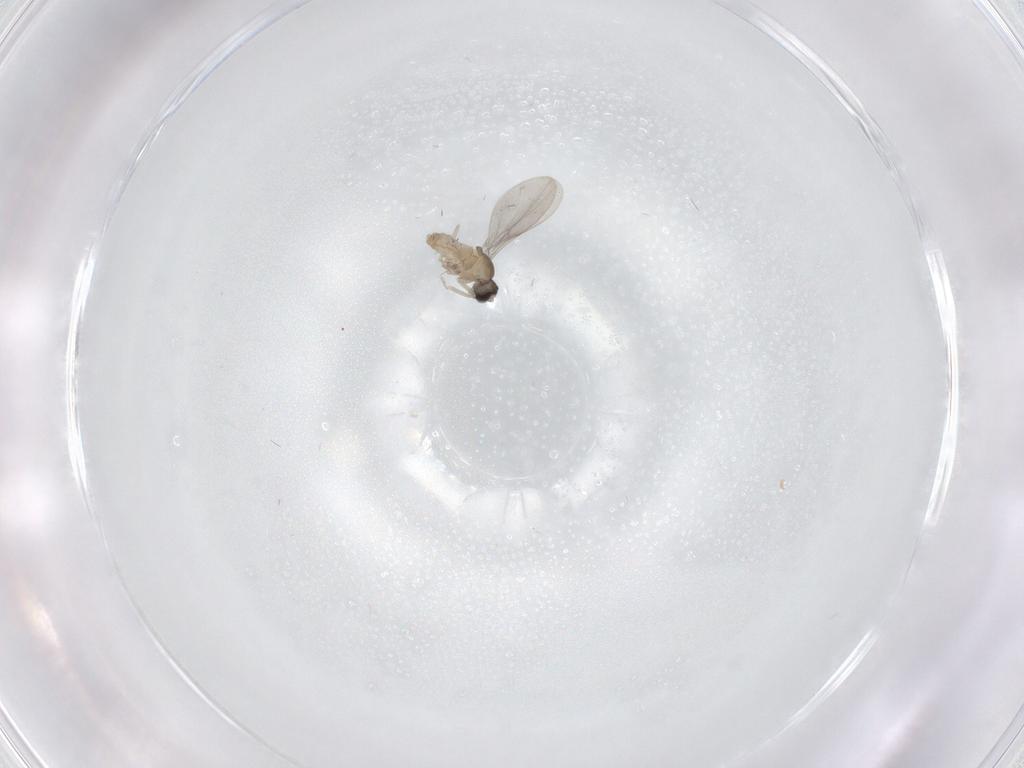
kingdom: Animalia
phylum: Arthropoda
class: Insecta
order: Diptera
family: Cecidomyiidae
